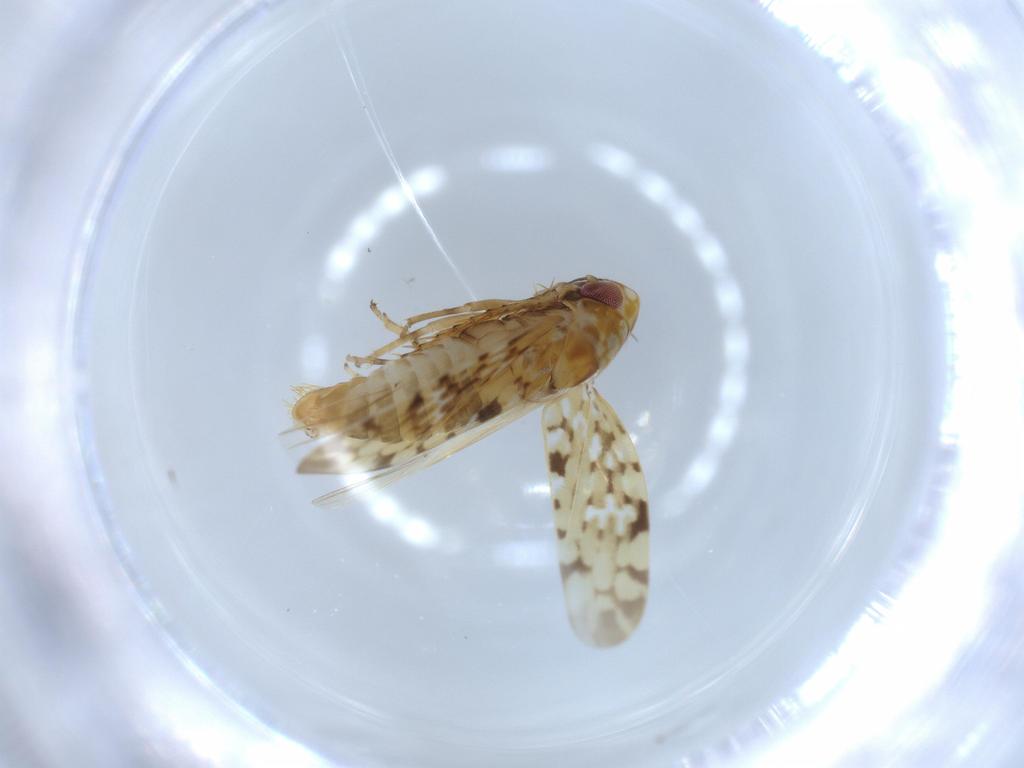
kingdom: Animalia
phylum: Arthropoda
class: Insecta
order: Hemiptera
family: Cicadellidae
